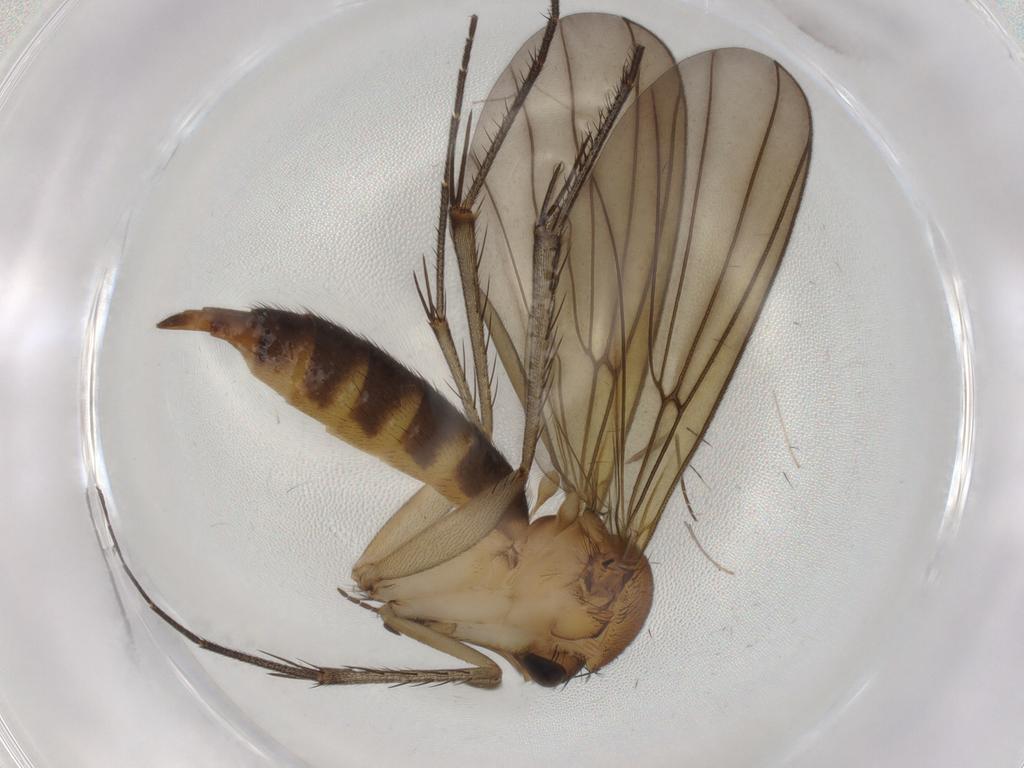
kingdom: Animalia
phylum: Arthropoda
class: Insecta
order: Diptera
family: Mycetophilidae
